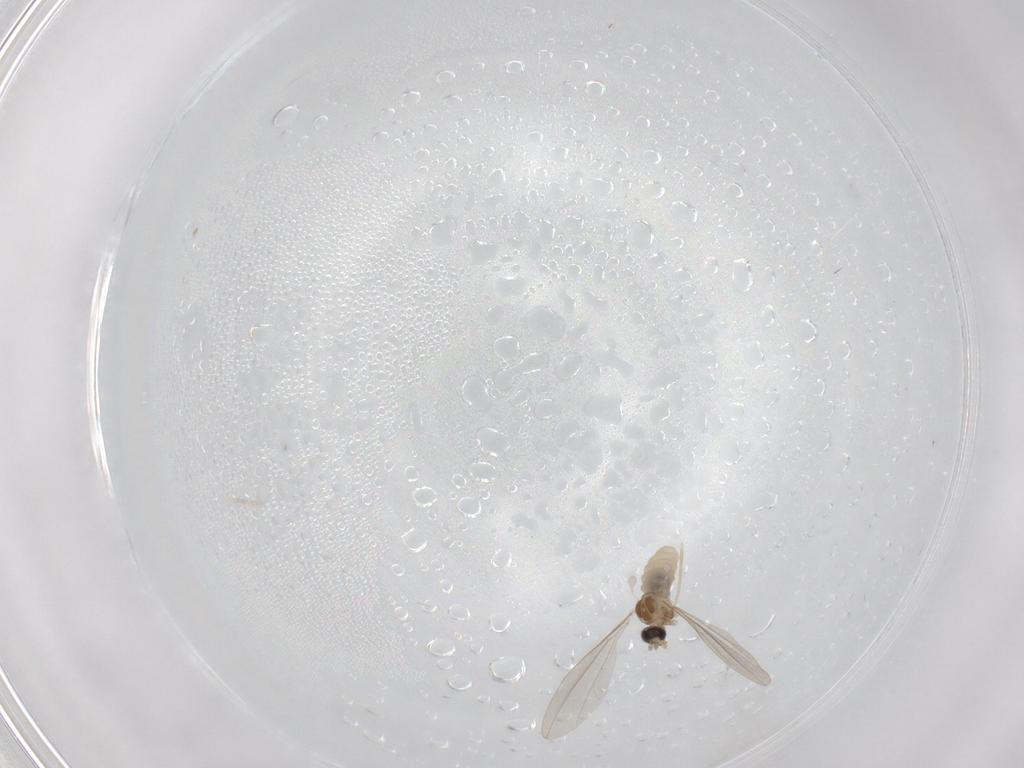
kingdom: Animalia
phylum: Arthropoda
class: Insecta
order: Diptera
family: Cecidomyiidae
